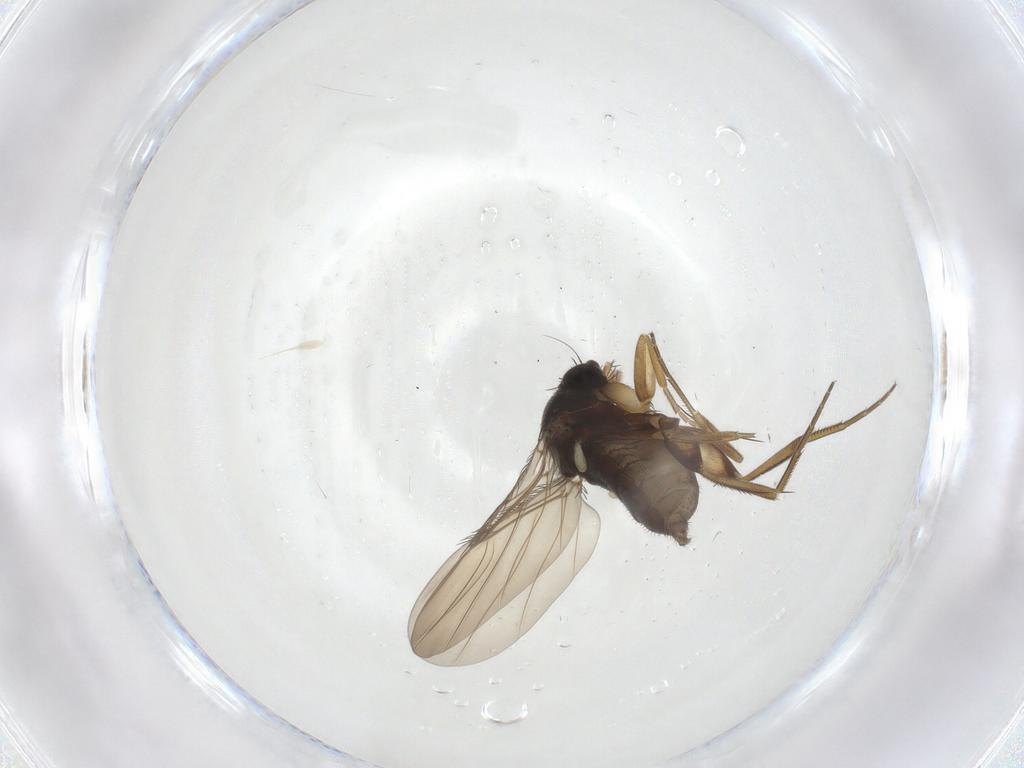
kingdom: Animalia
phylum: Arthropoda
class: Insecta
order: Diptera
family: Phoridae
